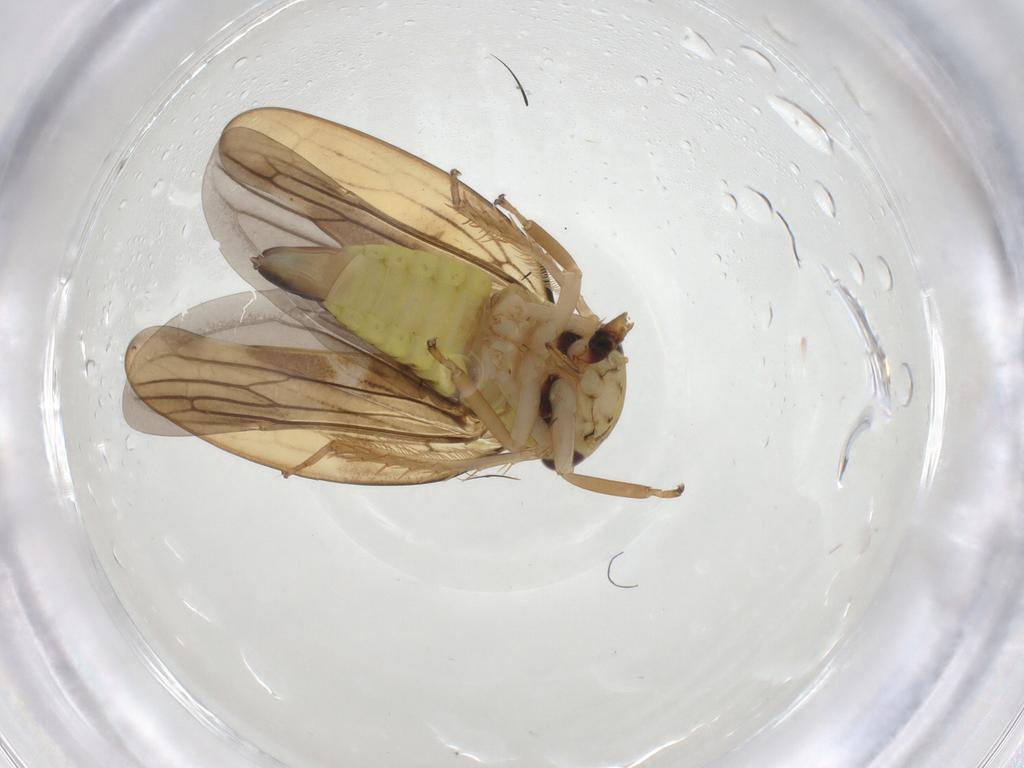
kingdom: Animalia
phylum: Arthropoda
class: Insecta
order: Hemiptera
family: Cicadellidae
